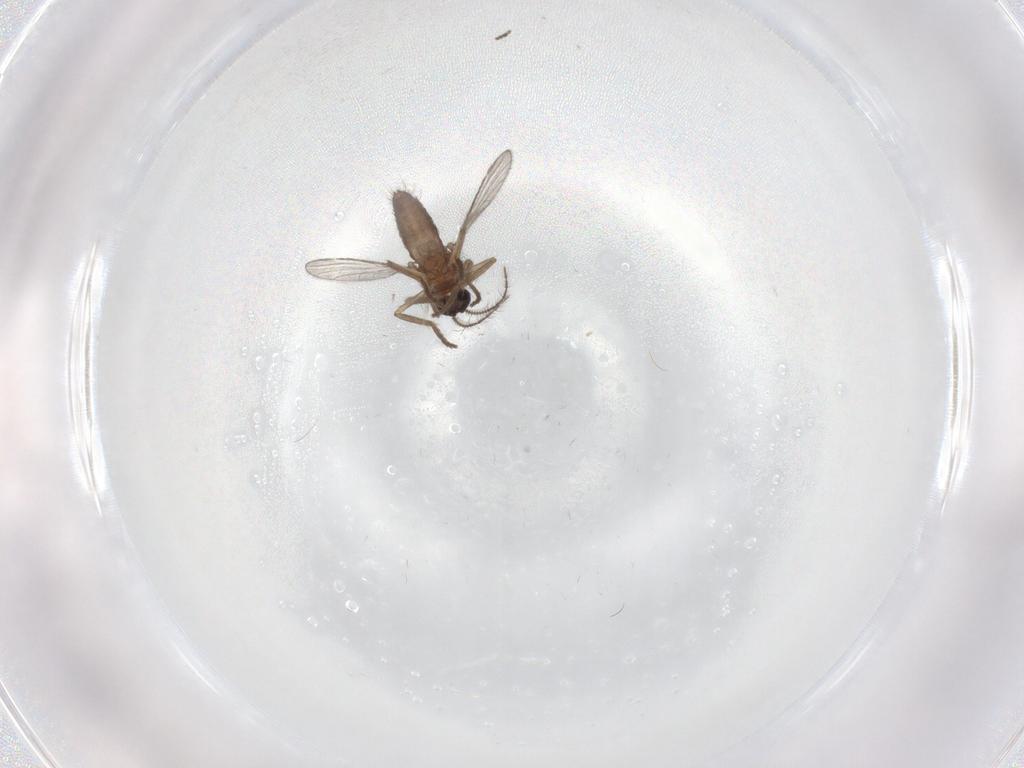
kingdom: Animalia
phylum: Arthropoda
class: Insecta
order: Diptera
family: Ceratopogonidae
